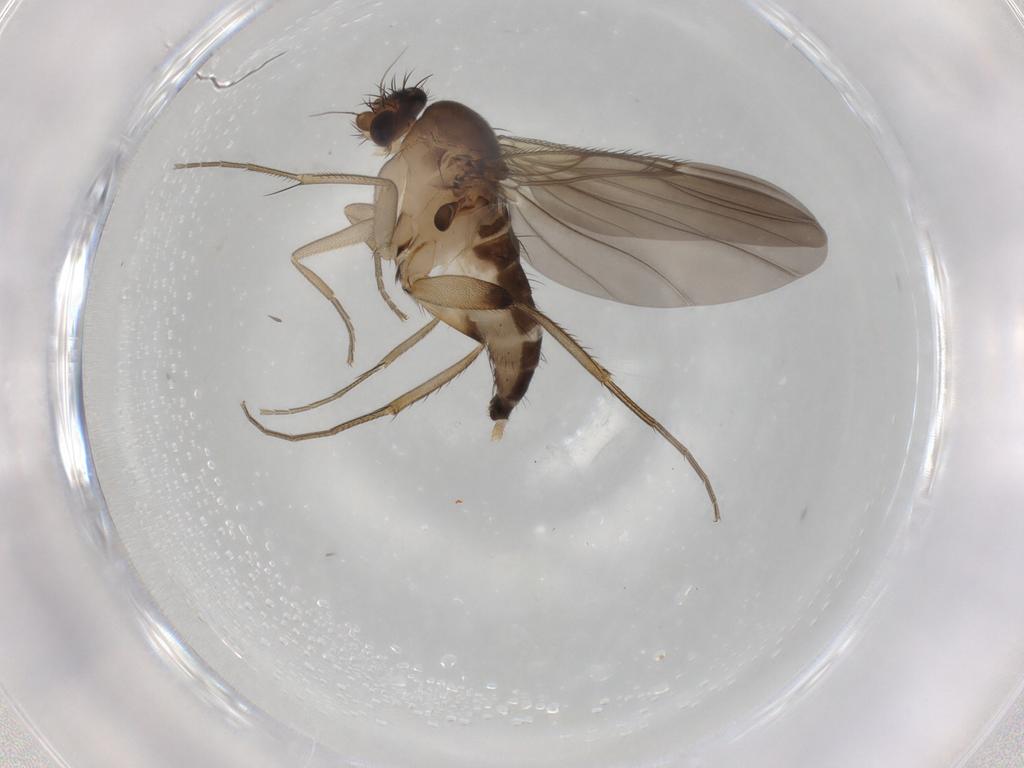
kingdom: Animalia
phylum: Arthropoda
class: Insecta
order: Diptera
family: Phoridae
